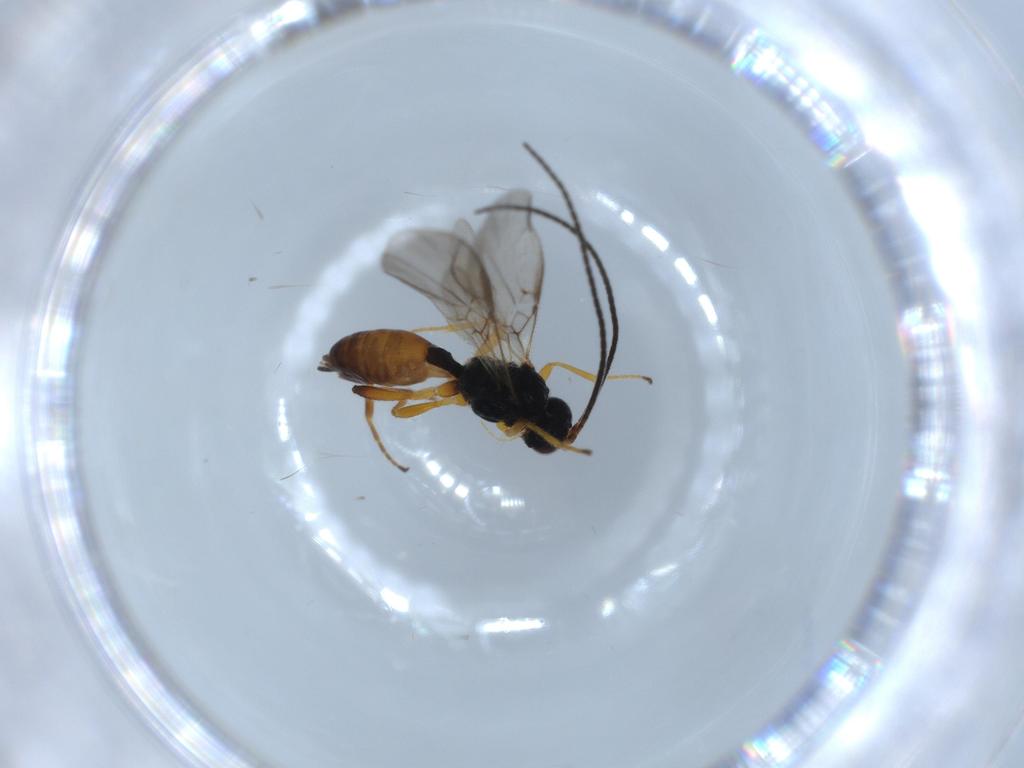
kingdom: Animalia
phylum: Arthropoda
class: Insecta
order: Hymenoptera
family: Braconidae
